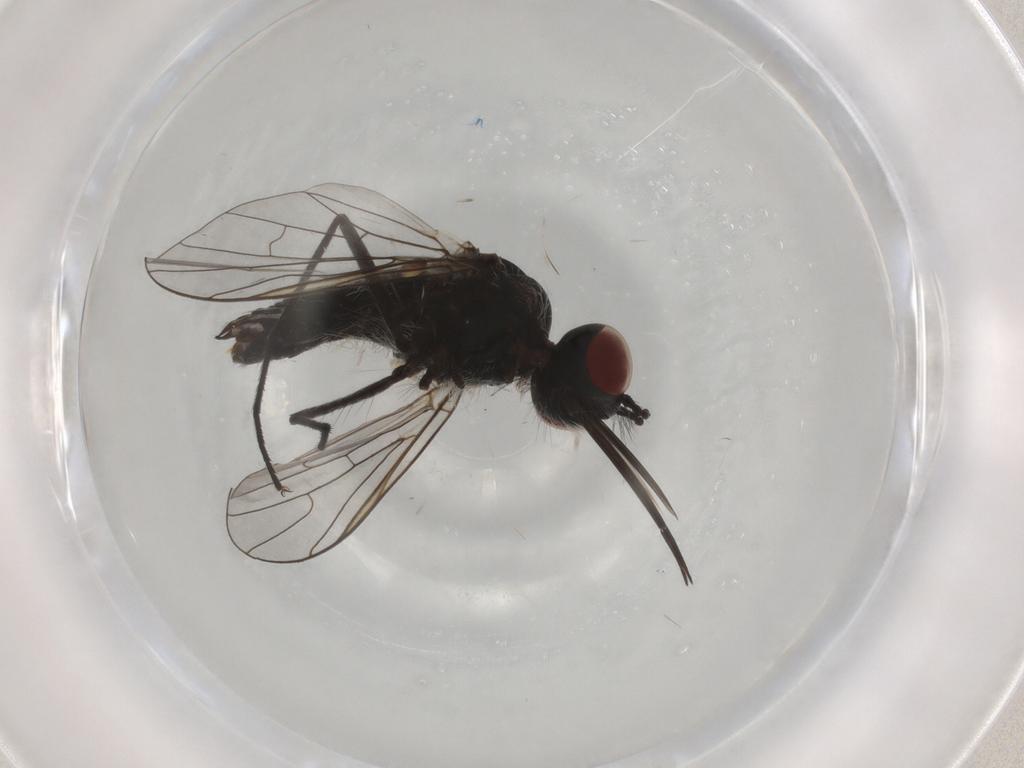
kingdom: Animalia
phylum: Arthropoda
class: Insecta
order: Diptera
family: Bombyliidae
